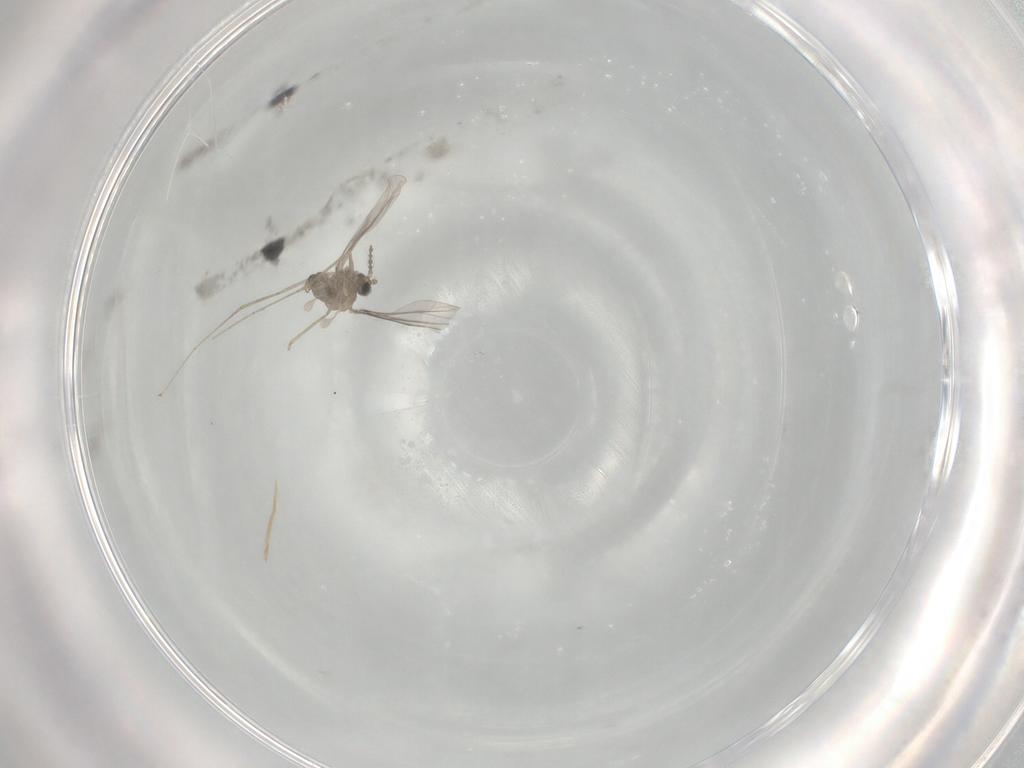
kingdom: Animalia
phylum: Arthropoda
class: Insecta
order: Diptera
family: Cecidomyiidae
